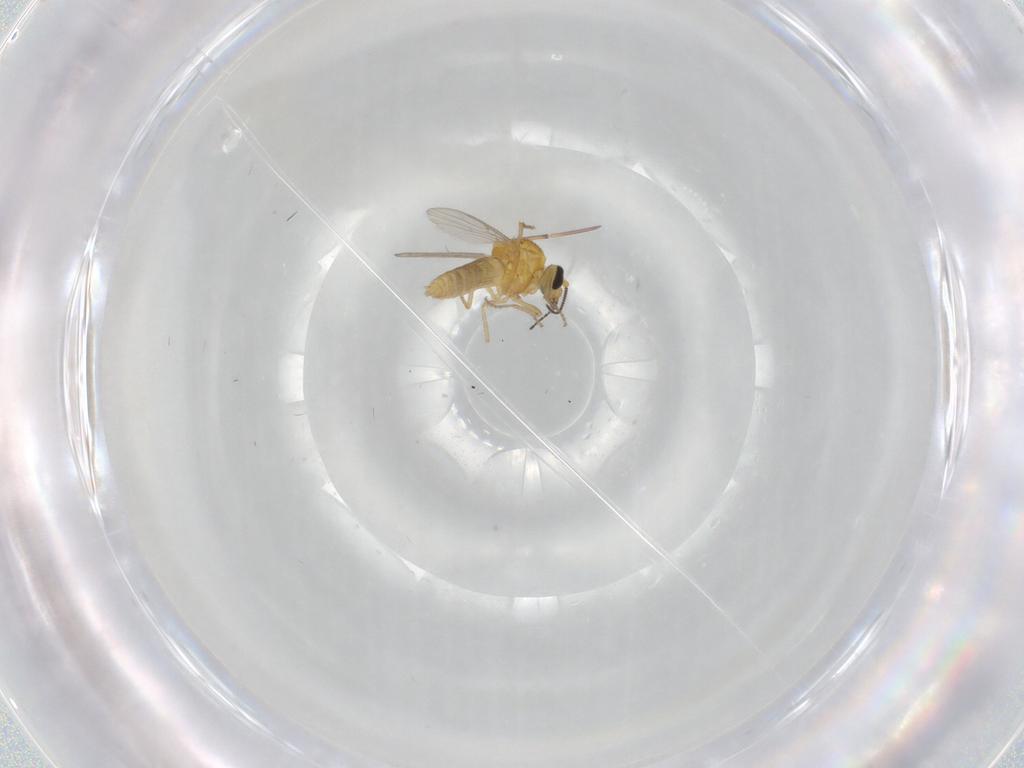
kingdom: Animalia
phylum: Arthropoda
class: Insecta
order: Diptera
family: Ceratopogonidae
